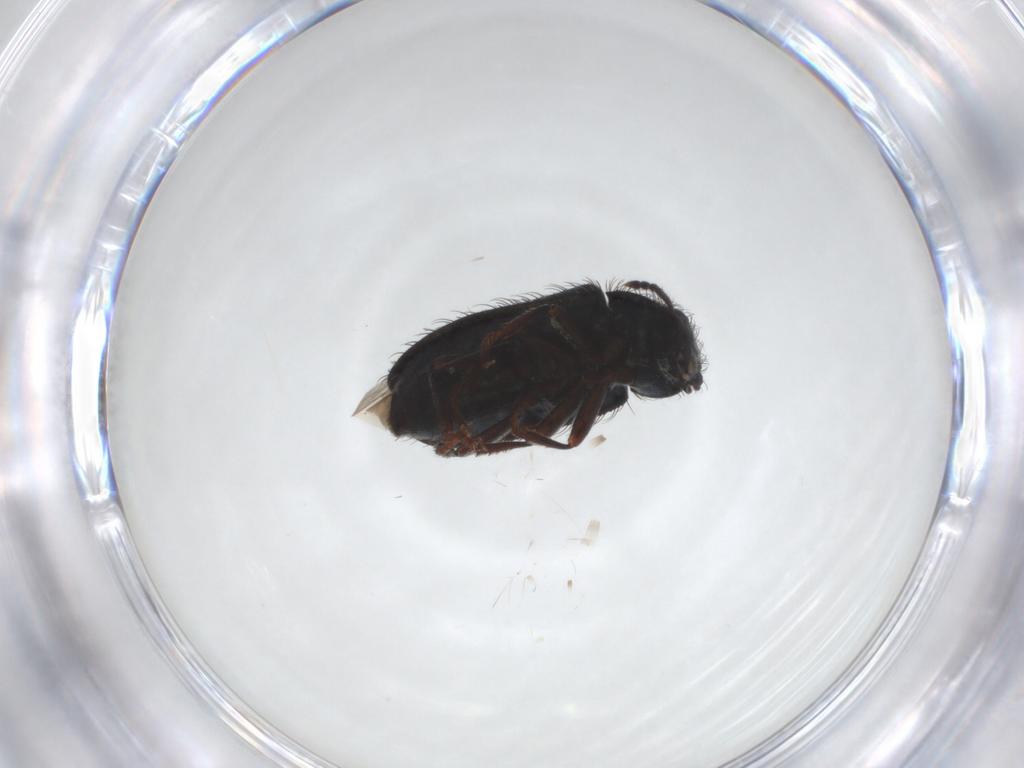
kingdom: Animalia
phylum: Arthropoda
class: Insecta
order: Coleoptera
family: Melyridae
